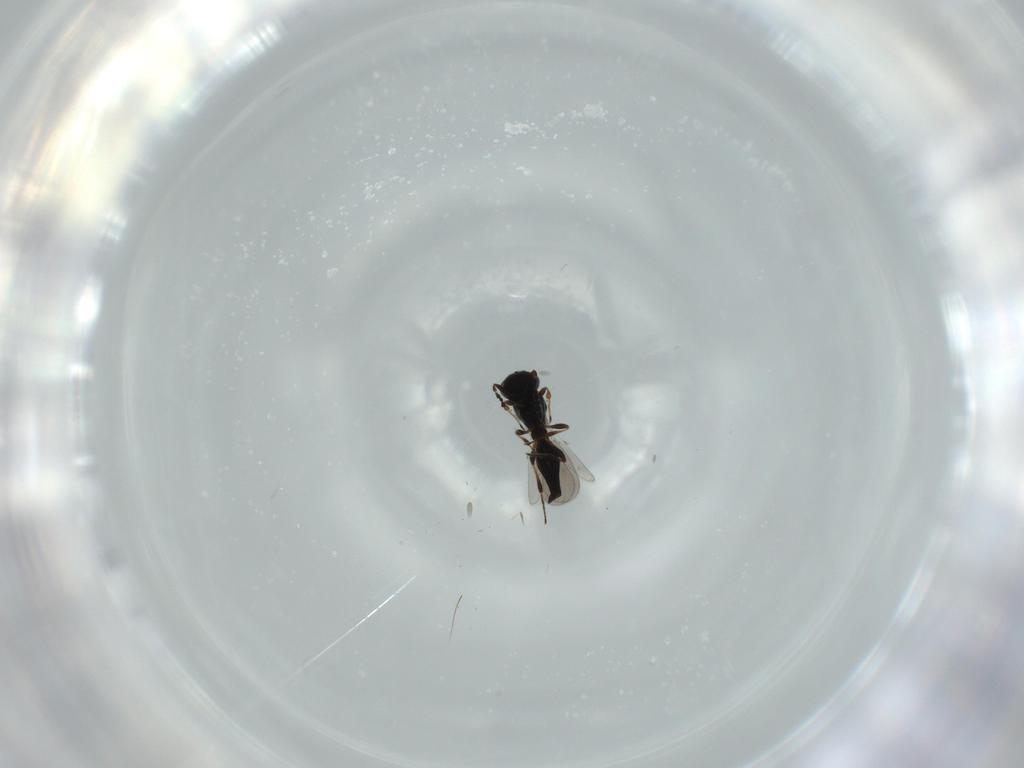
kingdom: Animalia
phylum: Arthropoda
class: Insecta
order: Hymenoptera
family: Platygastridae
